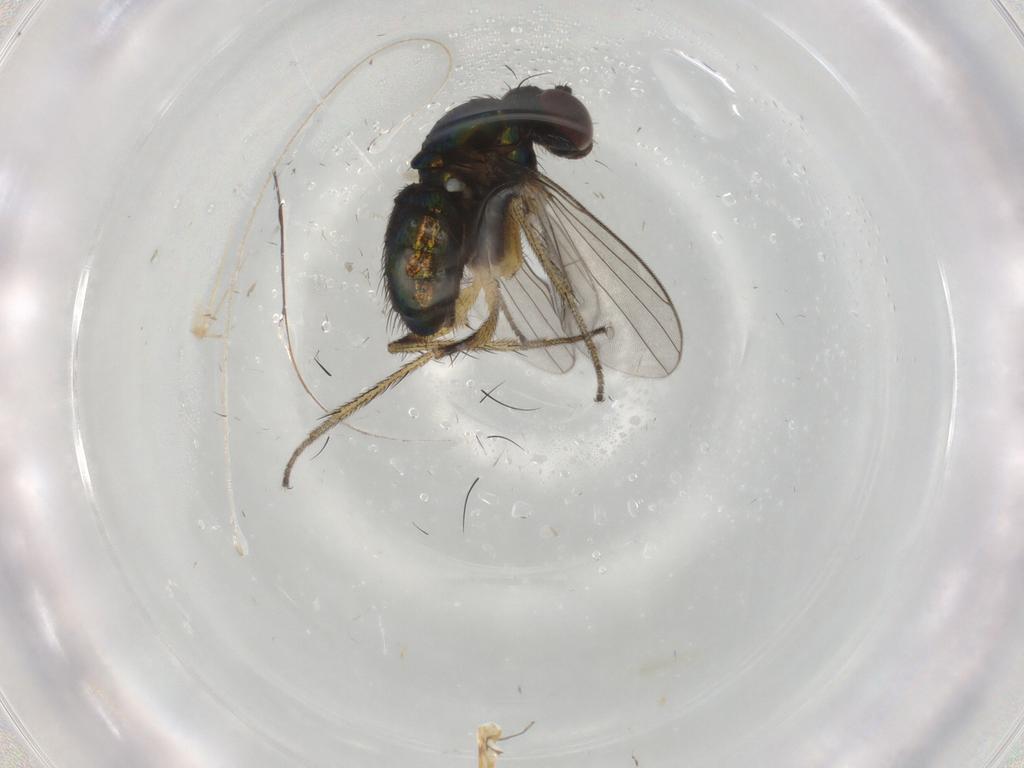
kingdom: Animalia
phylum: Arthropoda
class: Insecta
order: Diptera
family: Dolichopodidae
